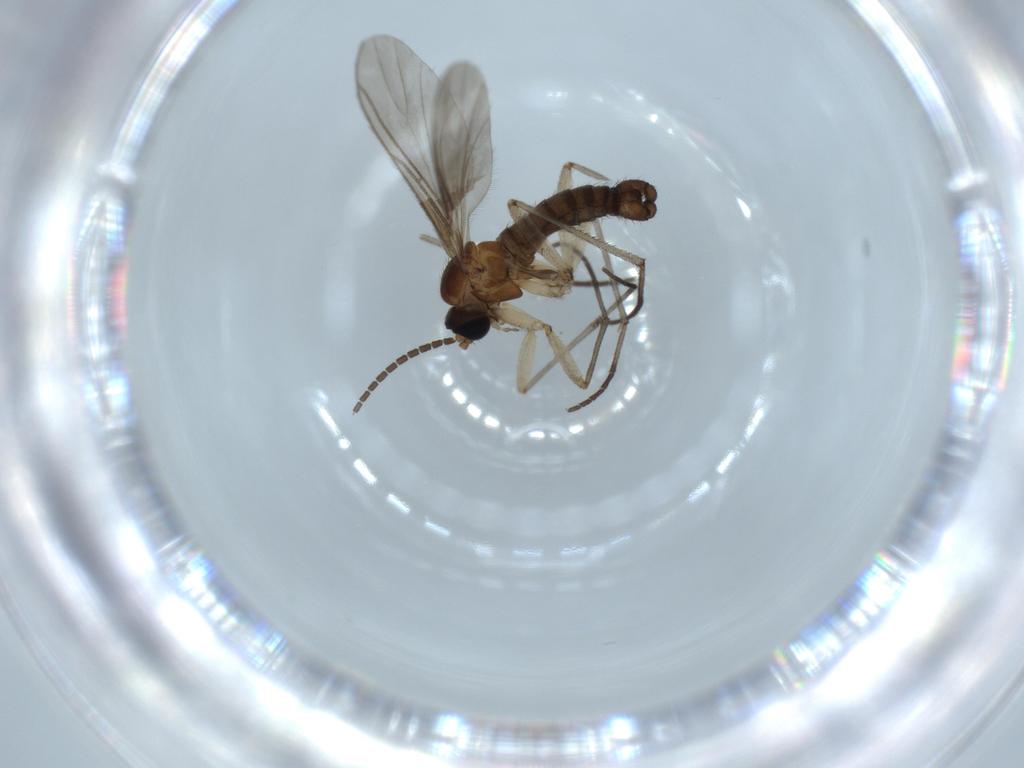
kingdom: Animalia
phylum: Arthropoda
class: Insecta
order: Diptera
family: Sciaridae
